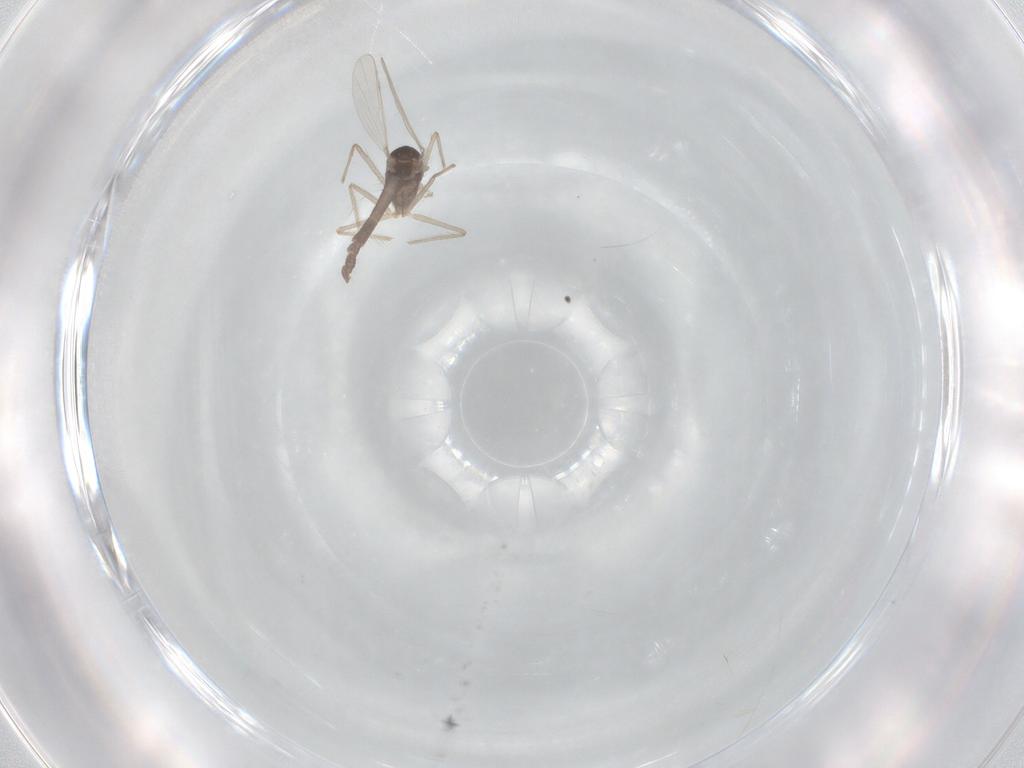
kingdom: Animalia
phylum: Arthropoda
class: Insecta
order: Diptera
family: Chironomidae
